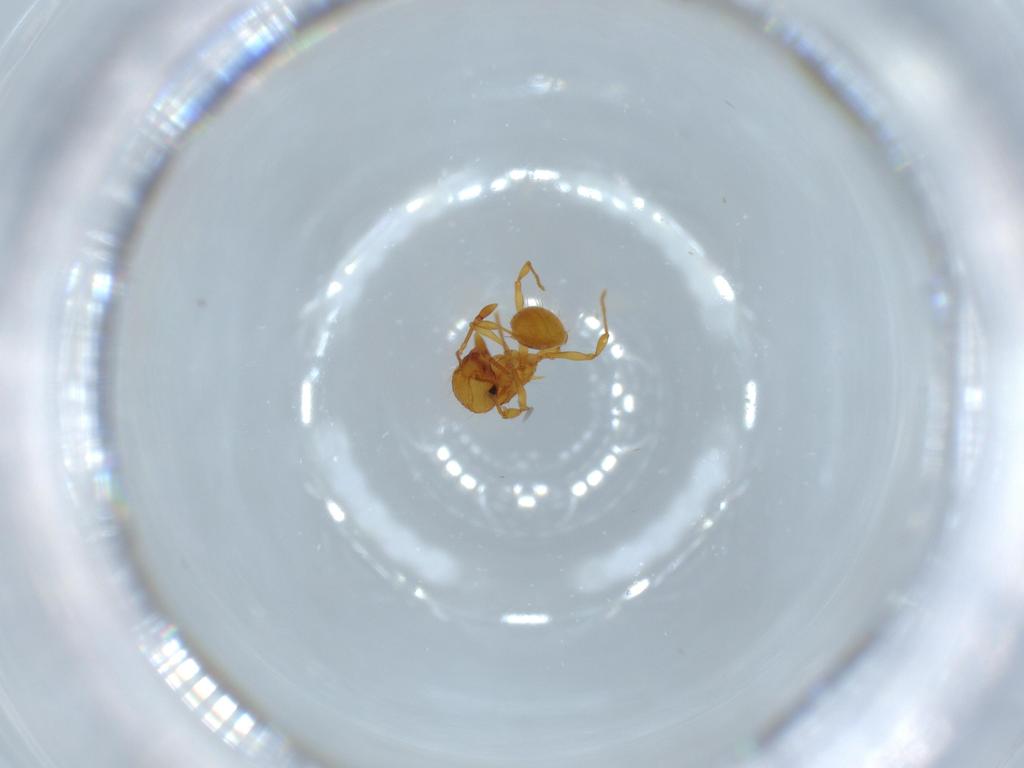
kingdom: Animalia
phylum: Arthropoda
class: Insecta
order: Hymenoptera
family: Formicidae
